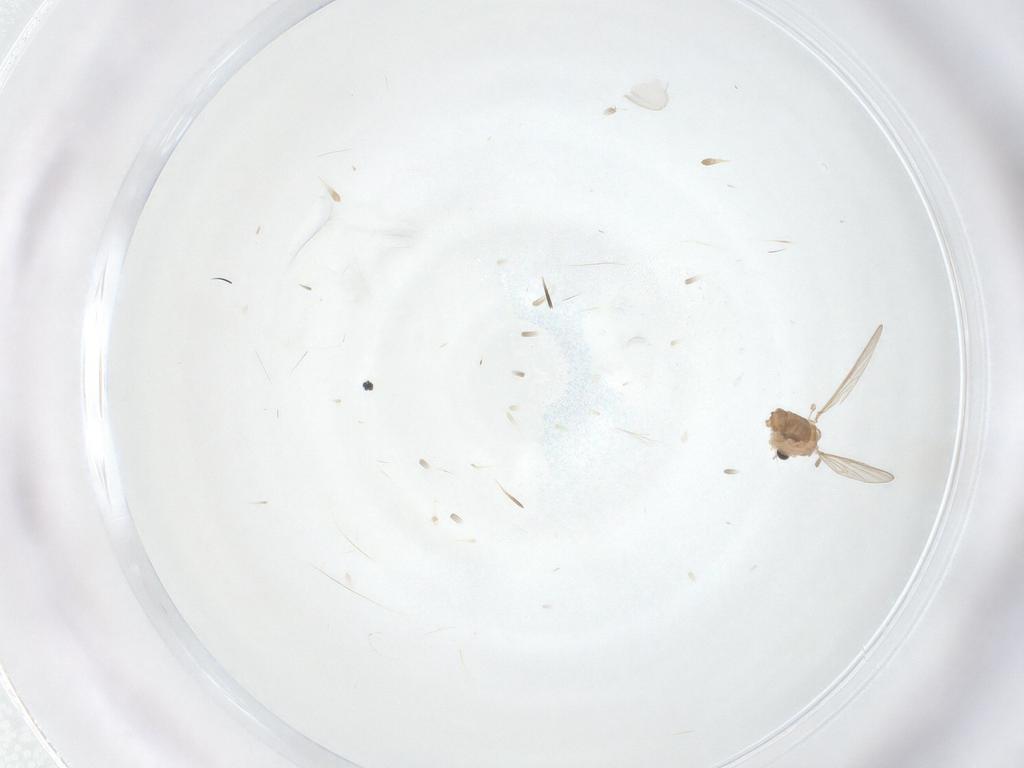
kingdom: Animalia
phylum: Arthropoda
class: Insecta
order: Diptera
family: Chironomidae
